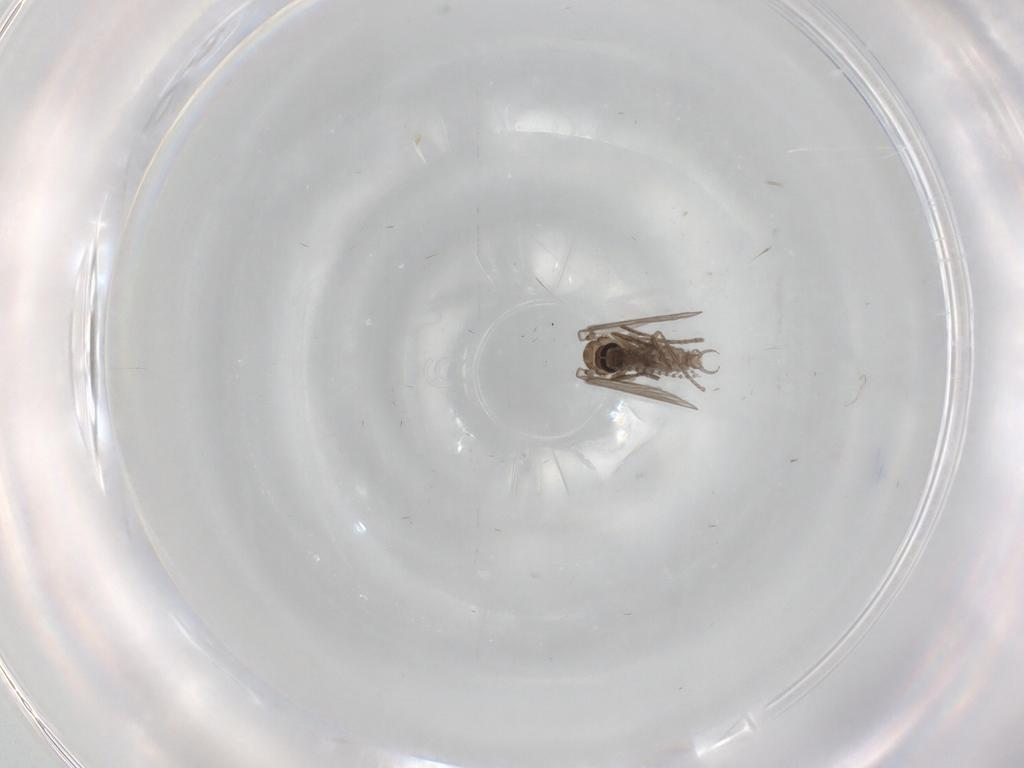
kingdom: Animalia
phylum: Arthropoda
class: Insecta
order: Diptera
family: Psychodidae
